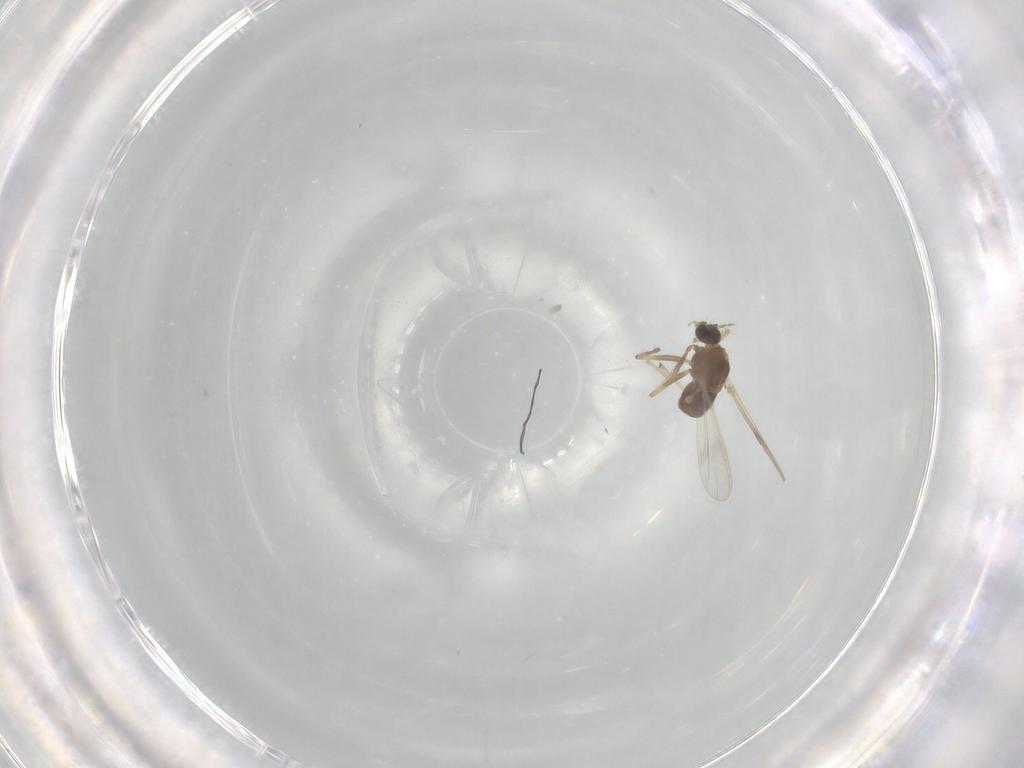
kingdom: Animalia
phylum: Arthropoda
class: Insecta
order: Diptera
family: Chironomidae
